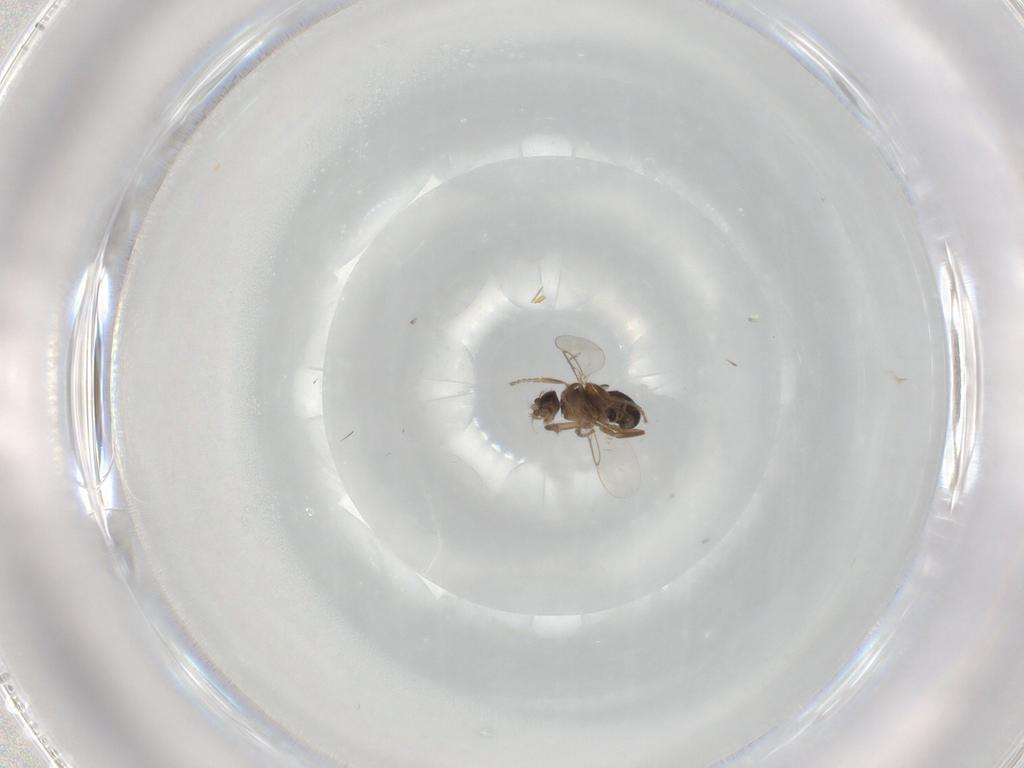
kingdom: Animalia
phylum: Arthropoda
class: Insecta
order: Diptera
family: Phoridae
